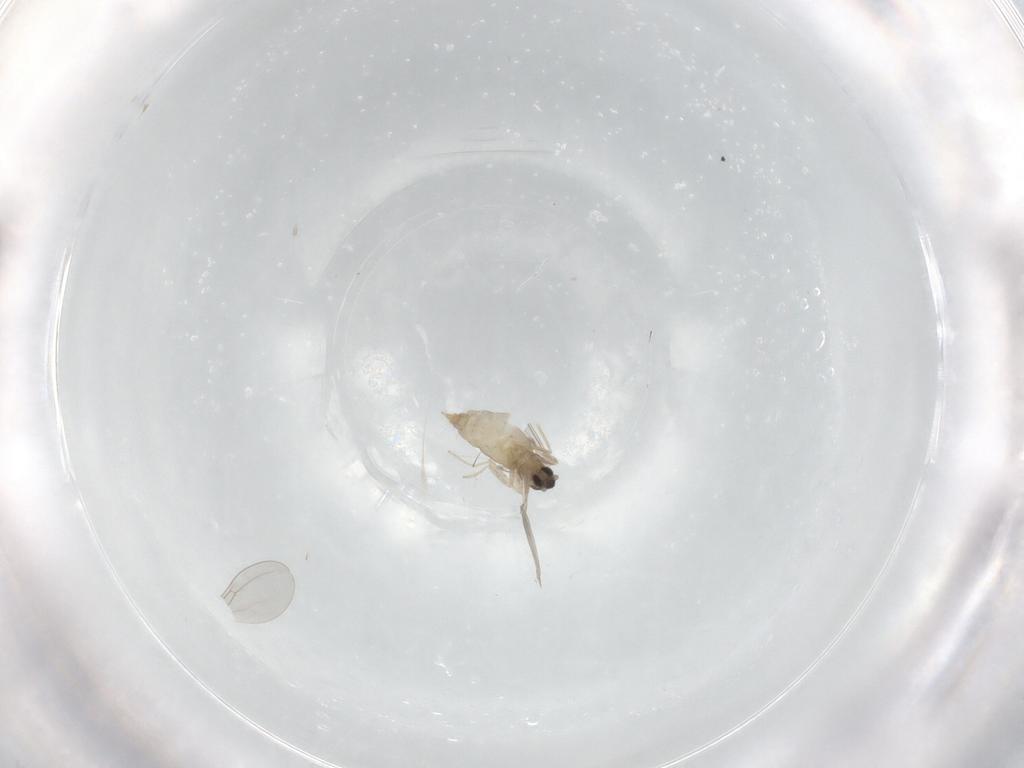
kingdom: Animalia
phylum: Arthropoda
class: Insecta
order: Diptera
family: Cecidomyiidae
